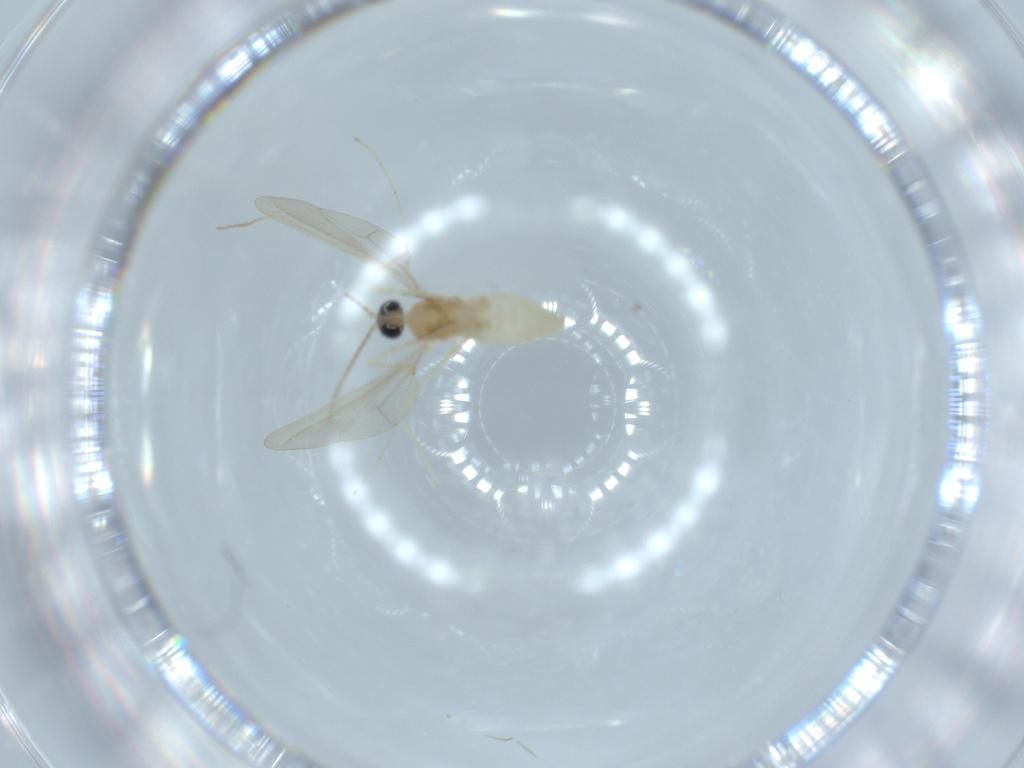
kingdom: Animalia
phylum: Arthropoda
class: Insecta
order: Diptera
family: Cecidomyiidae
